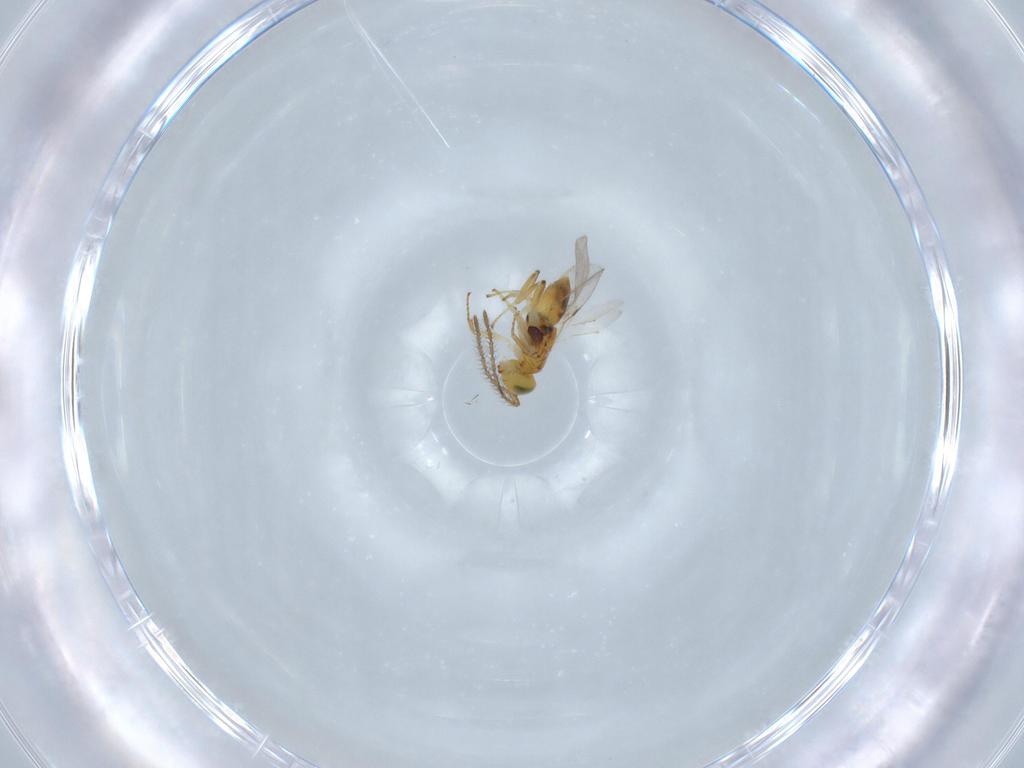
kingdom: Animalia
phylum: Arthropoda
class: Insecta
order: Hymenoptera
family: Encyrtidae
